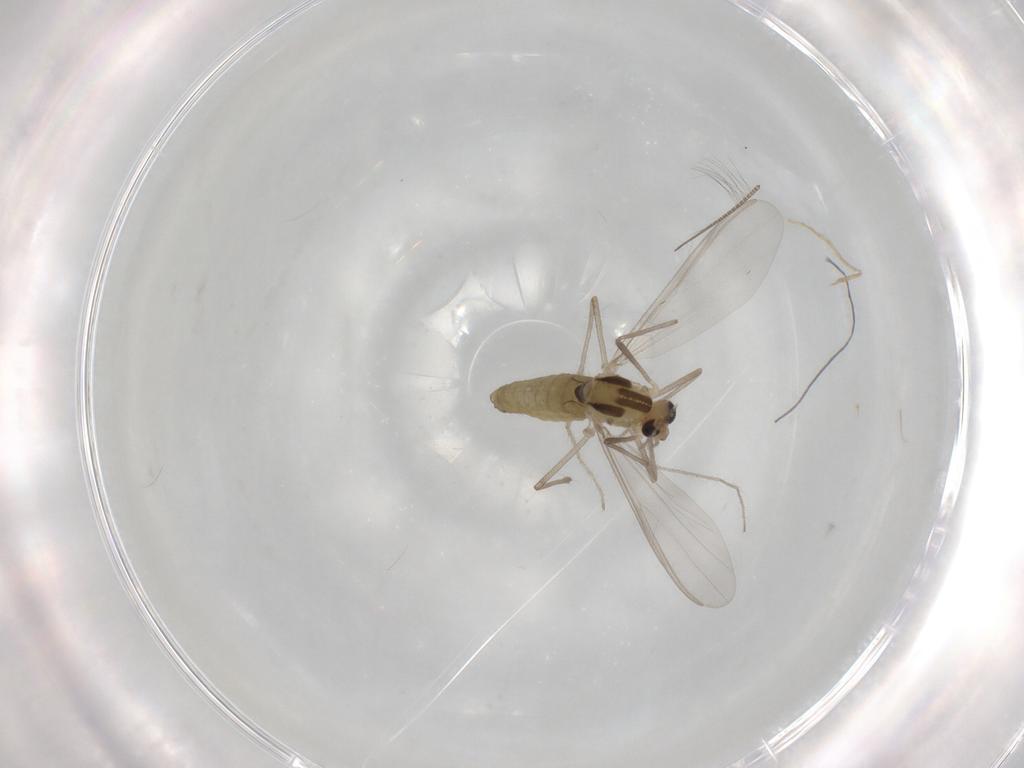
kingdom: Animalia
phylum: Arthropoda
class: Insecta
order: Diptera
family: Chironomidae
